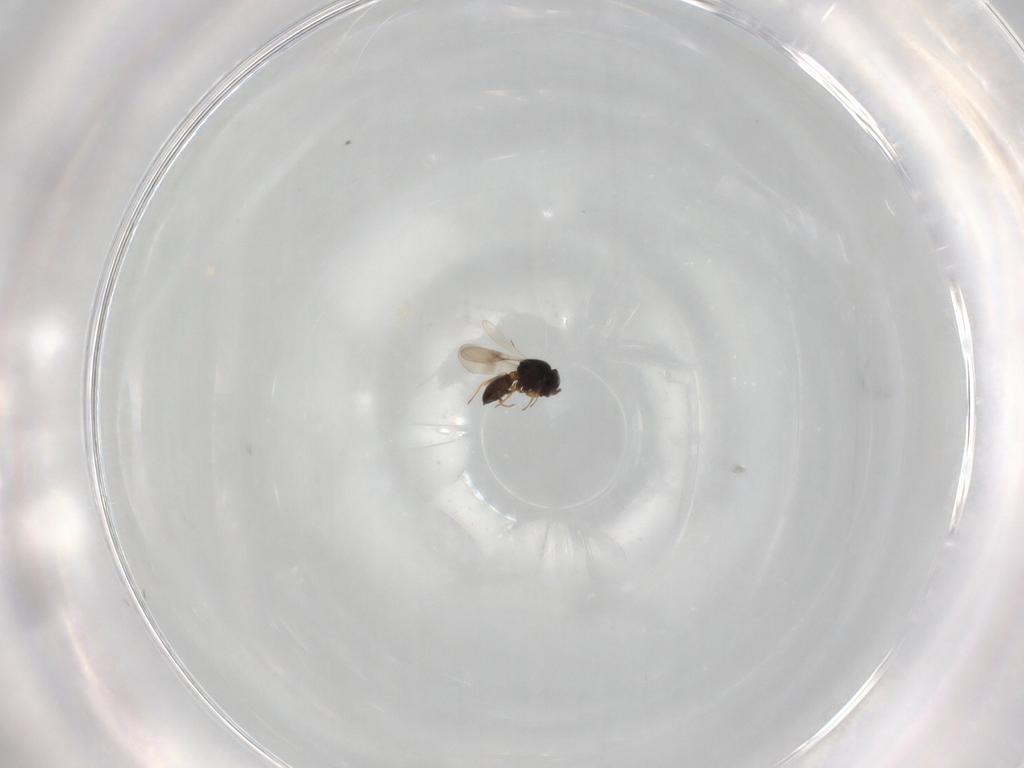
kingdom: Animalia
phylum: Arthropoda
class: Insecta
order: Hymenoptera
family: Scelionidae
